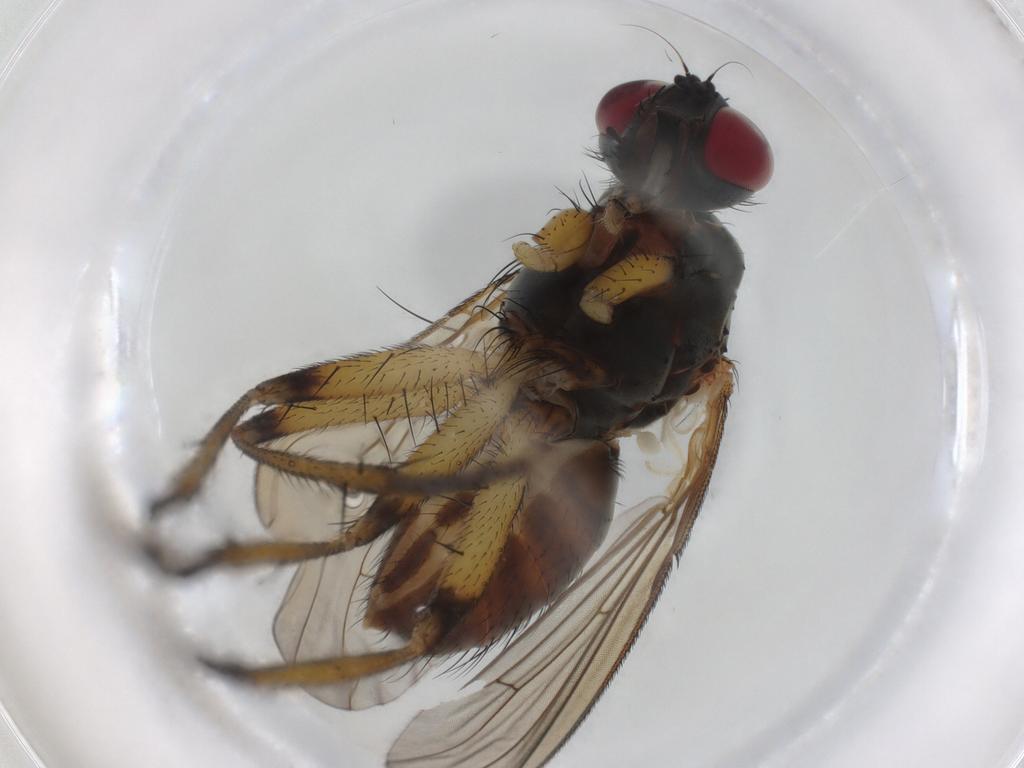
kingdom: Animalia
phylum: Arthropoda
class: Insecta
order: Diptera
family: Muscidae
